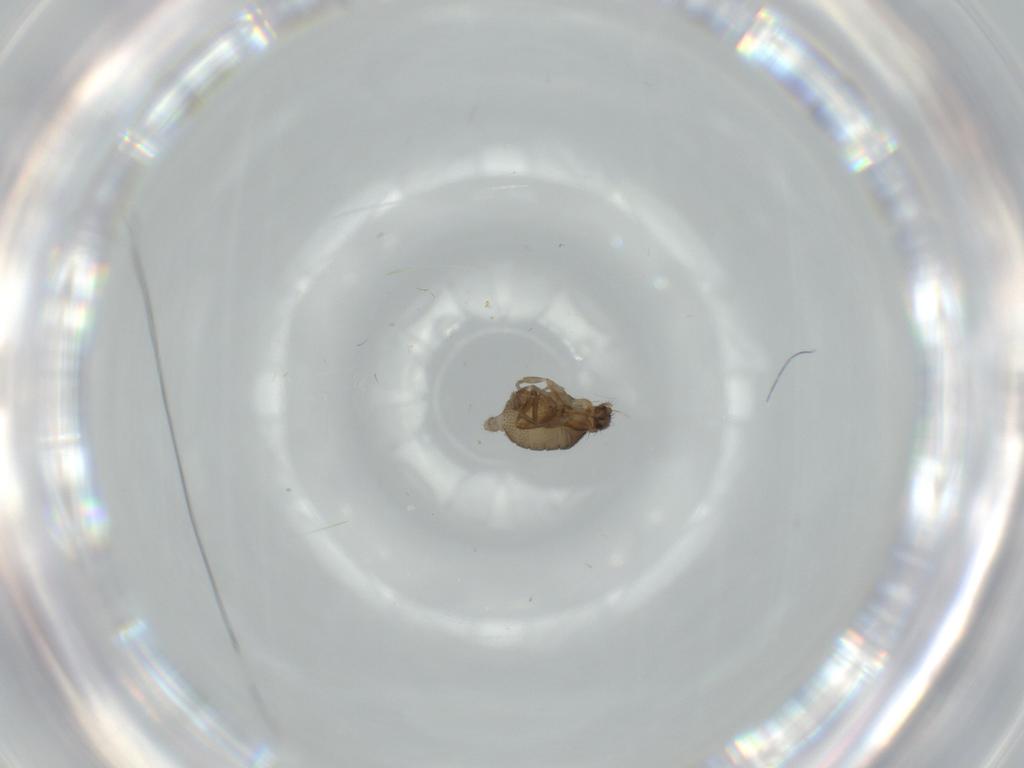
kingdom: Animalia
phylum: Arthropoda
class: Insecta
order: Diptera
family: Phoridae
